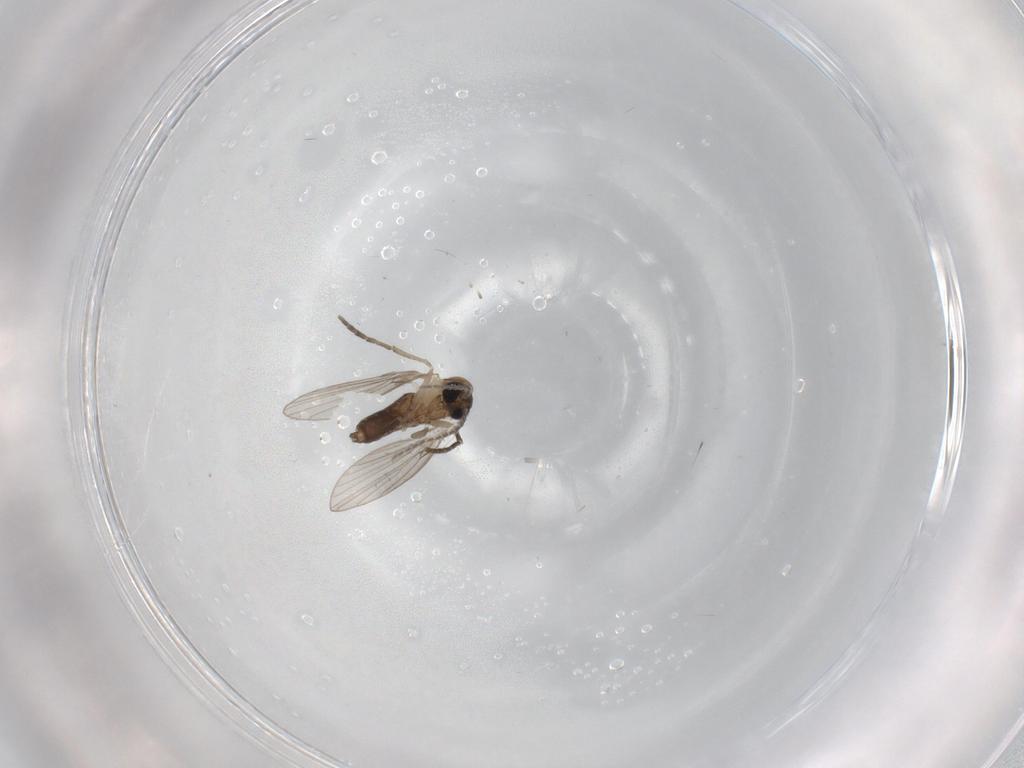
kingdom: Animalia
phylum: Arthropoda
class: Insecta
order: Diptera
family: Psychodidae
